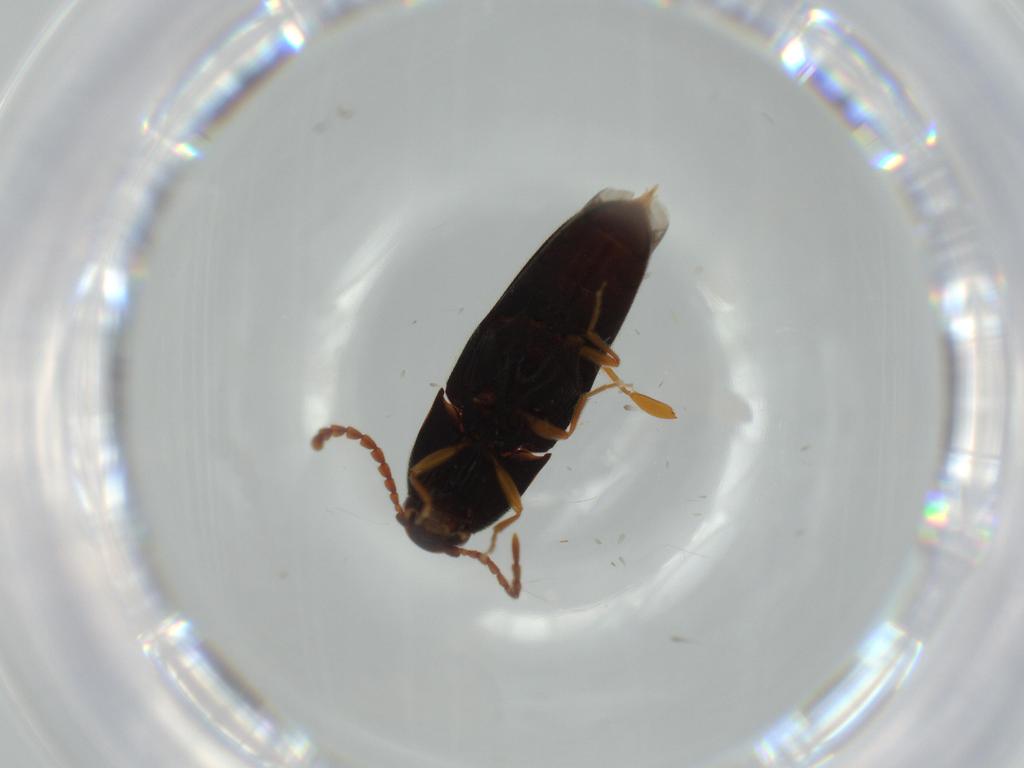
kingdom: Animalia
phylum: Arthropoda
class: Insecta
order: Coleoptera
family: Elateridae
